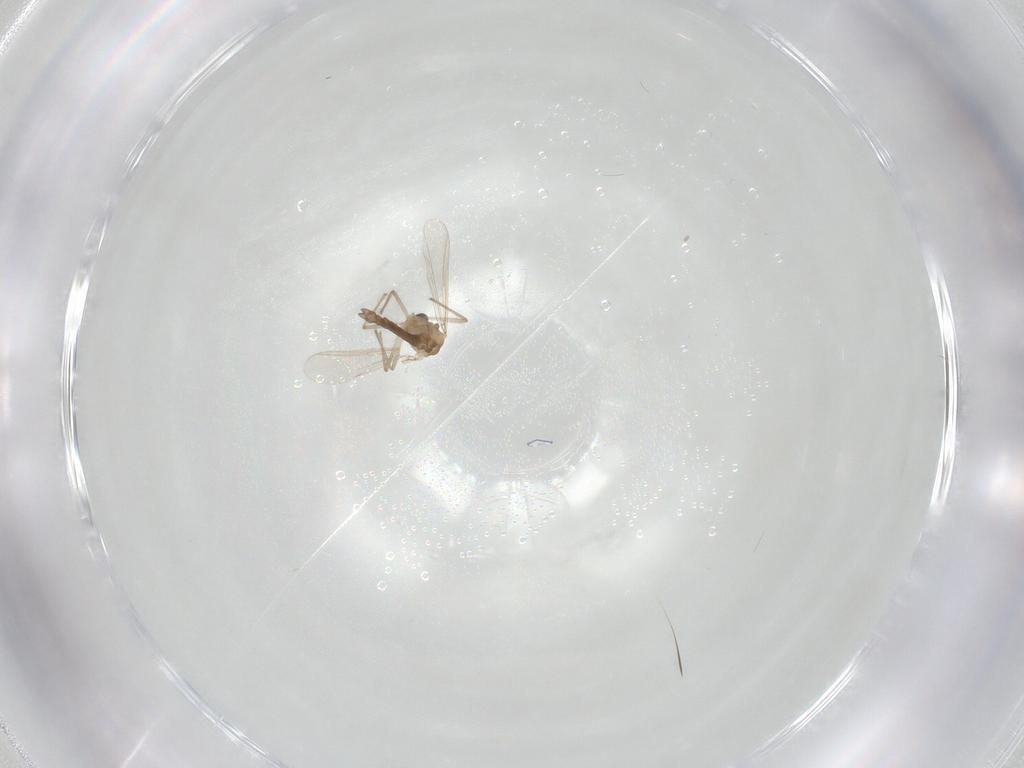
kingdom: Animalia
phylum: Arthropoda
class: Insecta
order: Diptera
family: Chironomidae
